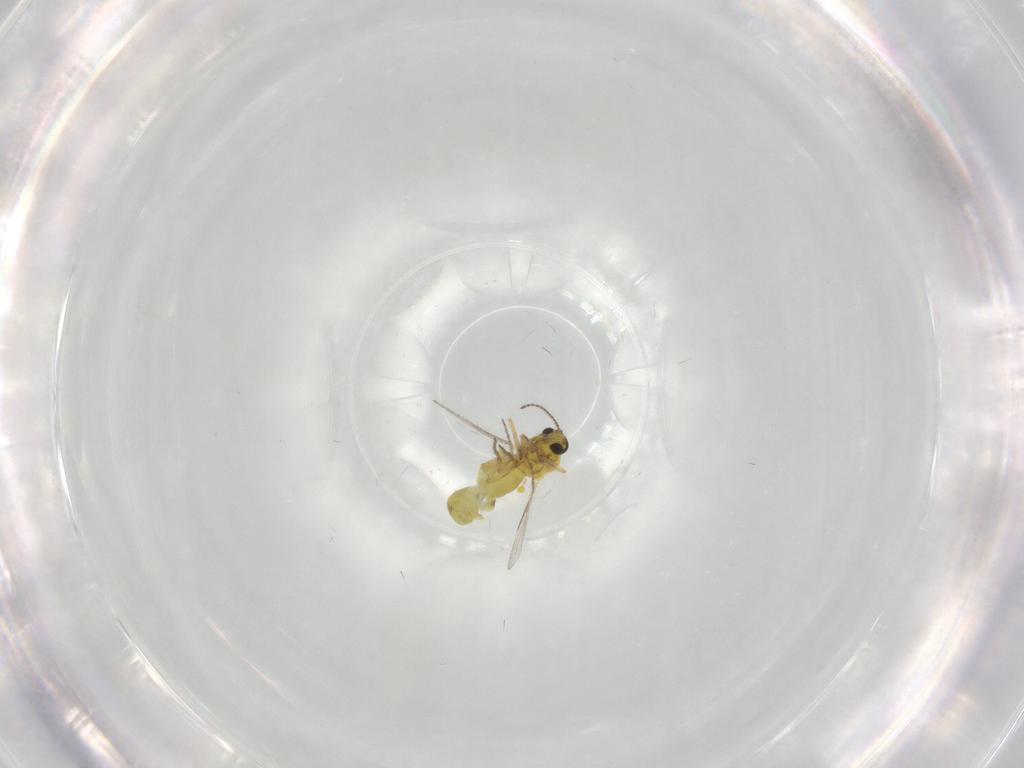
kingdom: Animalia
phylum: Arthropoda
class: Insecta
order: Diptera
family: Ceratopogonidae
